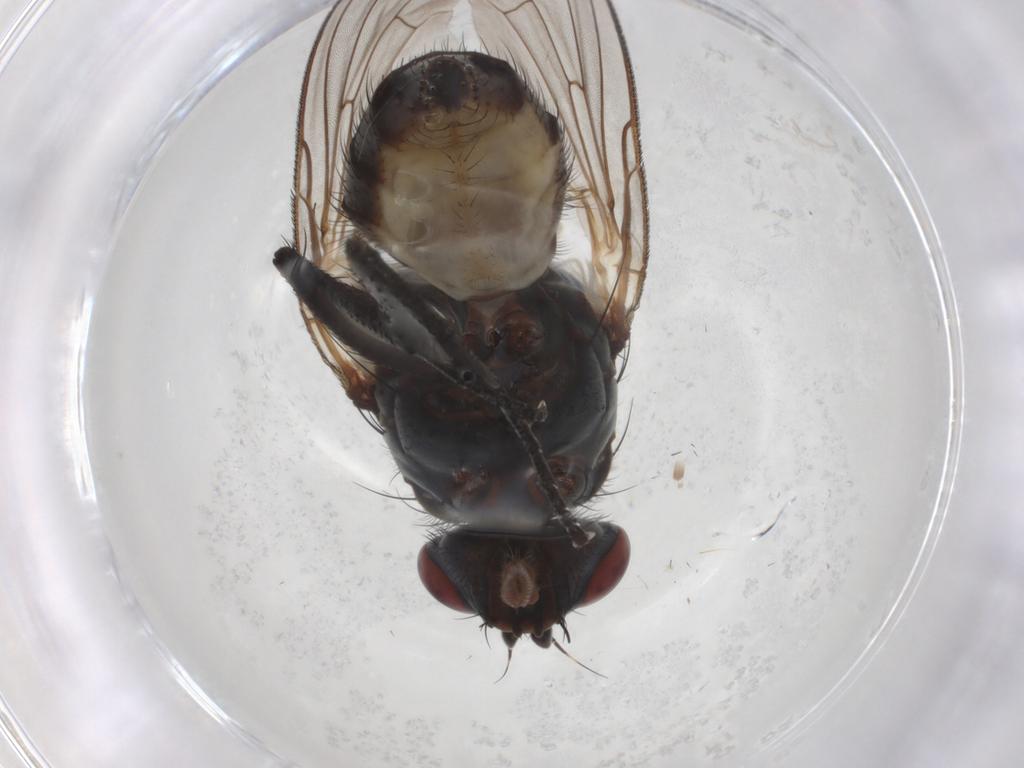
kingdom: Animalia
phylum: Arthropoda
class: Insecta
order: Diptera
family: Anthomyiidae
